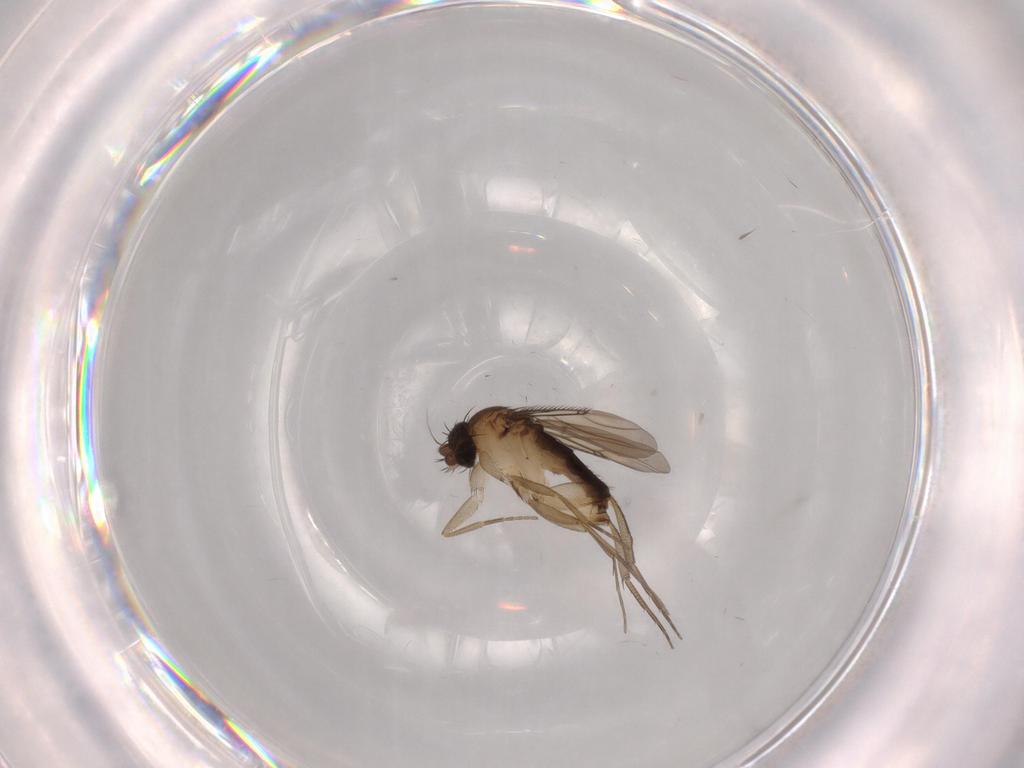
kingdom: Animalia
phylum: Arthropoda
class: Insecta
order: Diptera
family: Phoridae
